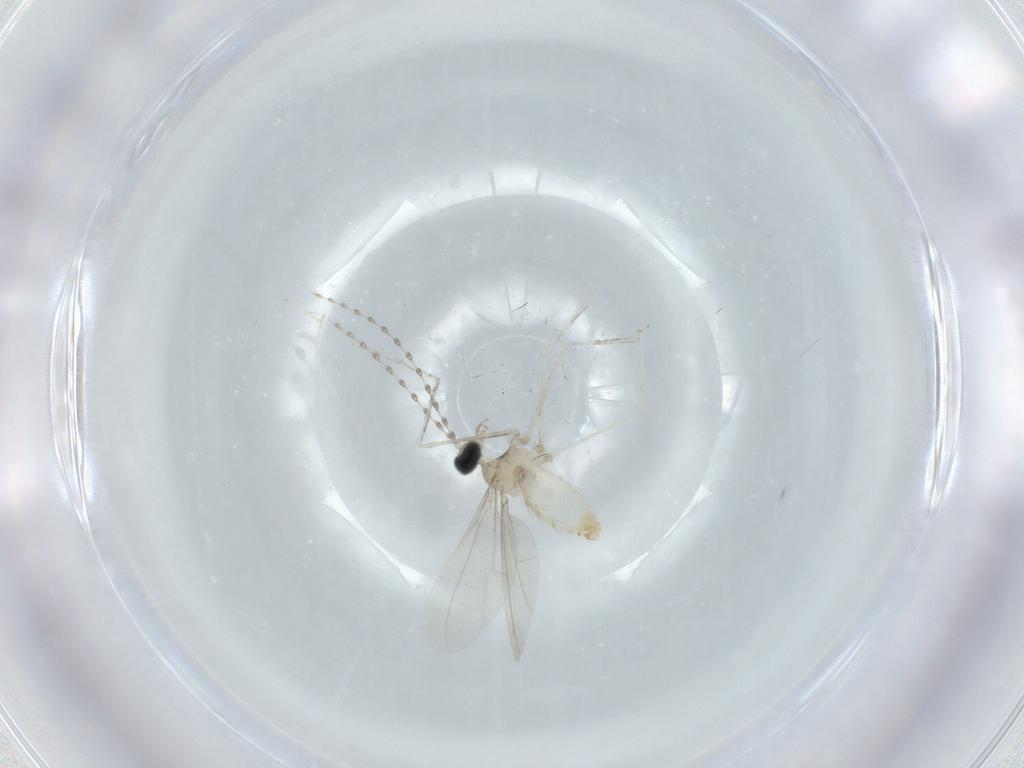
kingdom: Animalia
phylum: Arthropoda
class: Insecta
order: Diptera
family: Cecidomyiidae
